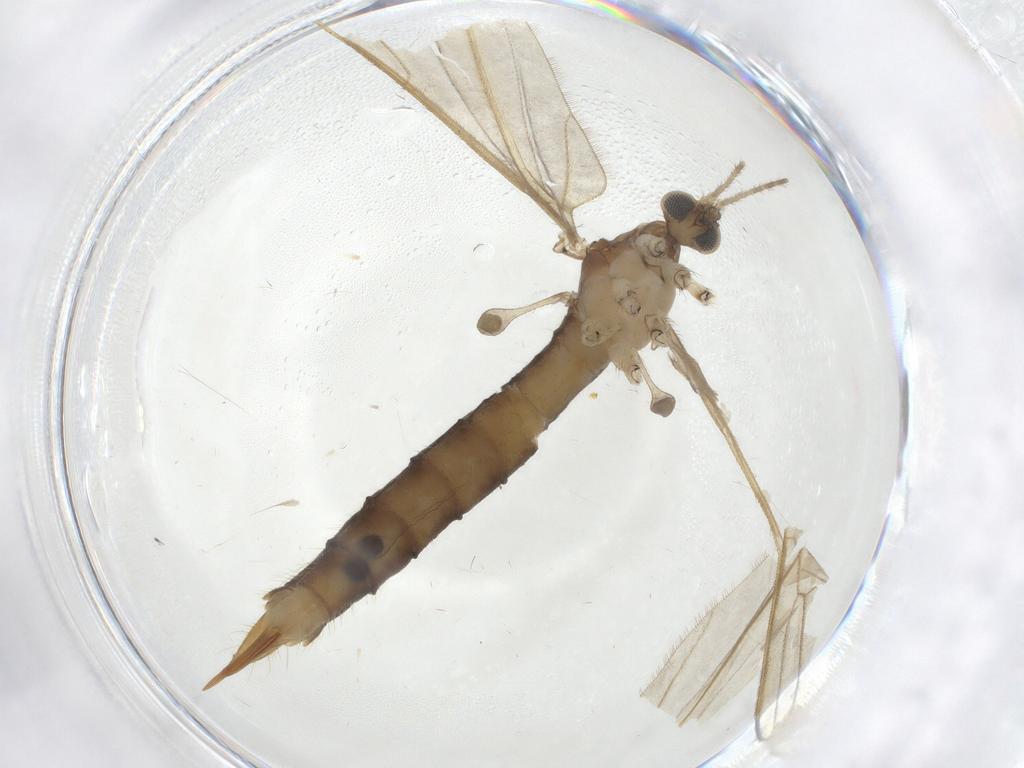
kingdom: Animalia
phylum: Arthropoda
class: Insecta
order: Diptera
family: Limoniidae
